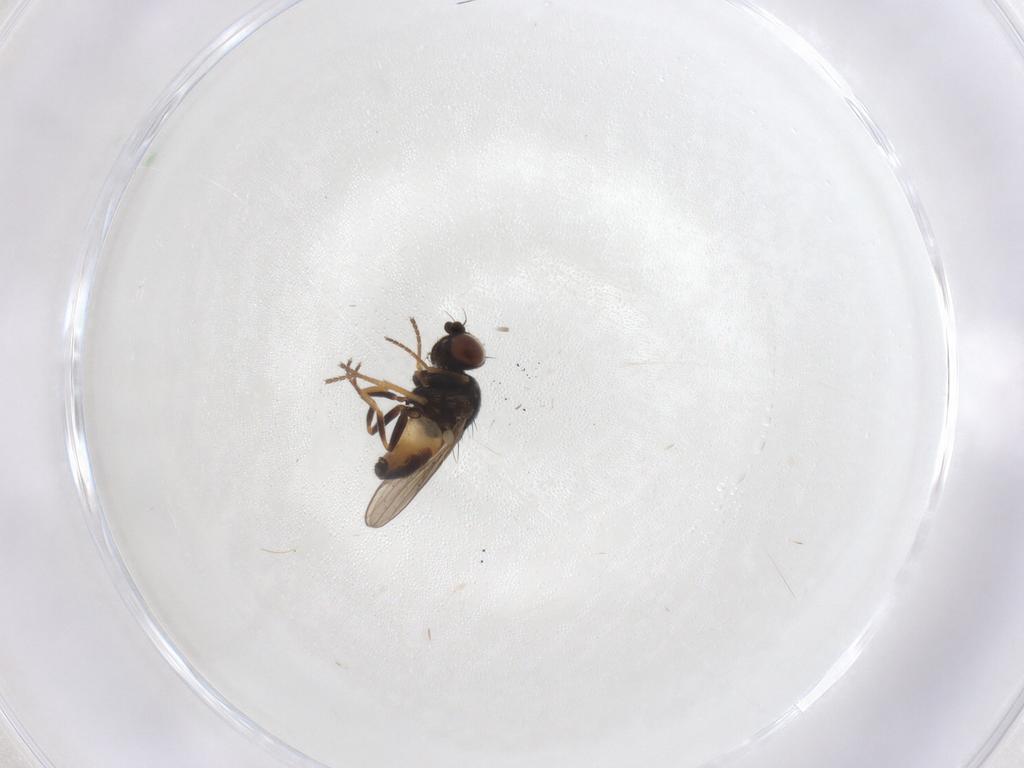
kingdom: Animalia
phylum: Arthropoda
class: Insecta
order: Diptera
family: Chloropidae
